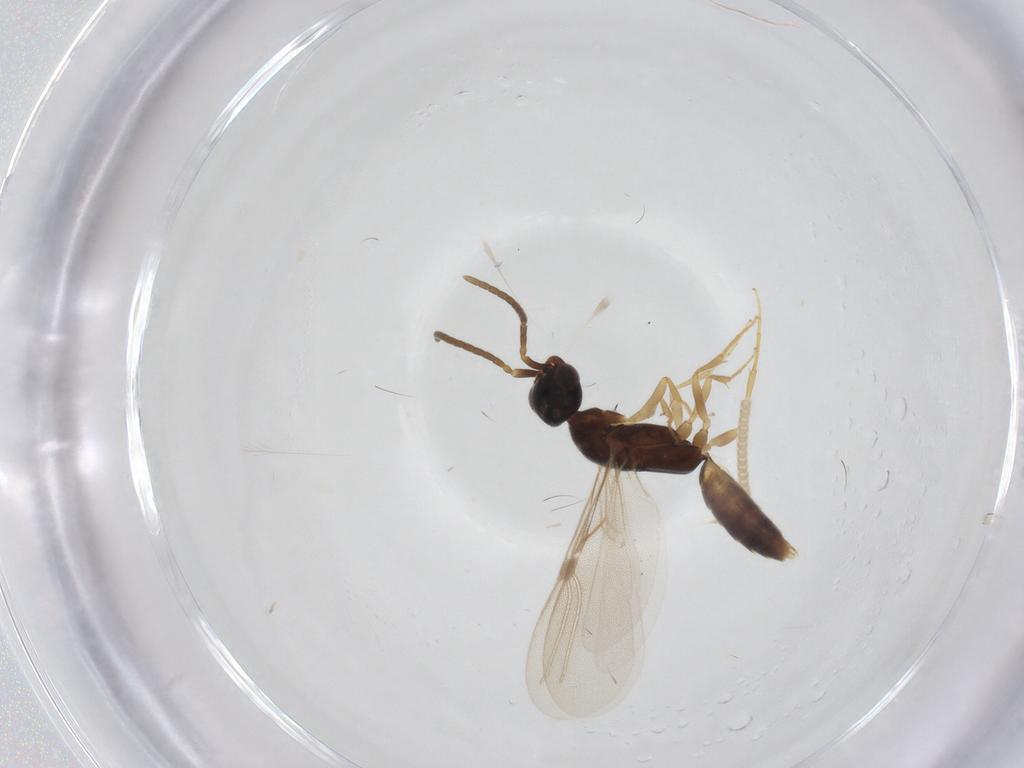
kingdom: Animalia
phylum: Arthropoda
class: Insecta
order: Hymenoptera
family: Bethylidae
